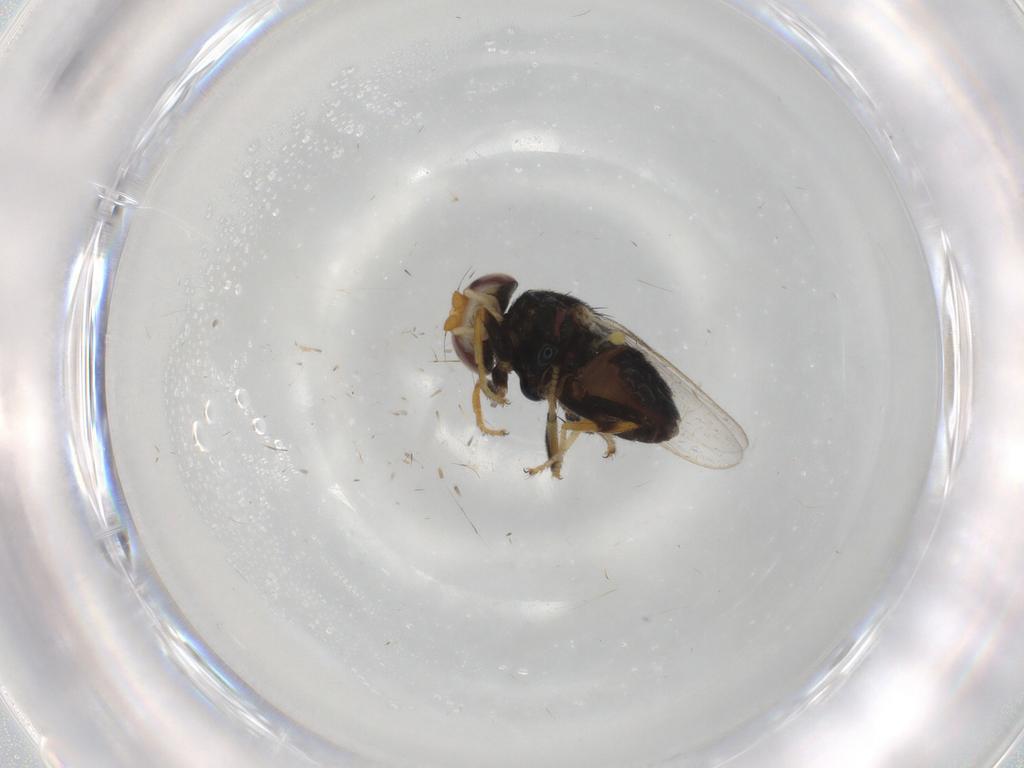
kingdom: Animalia
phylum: Arthropoda
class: Insecta
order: Diptera
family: Chloropidae
